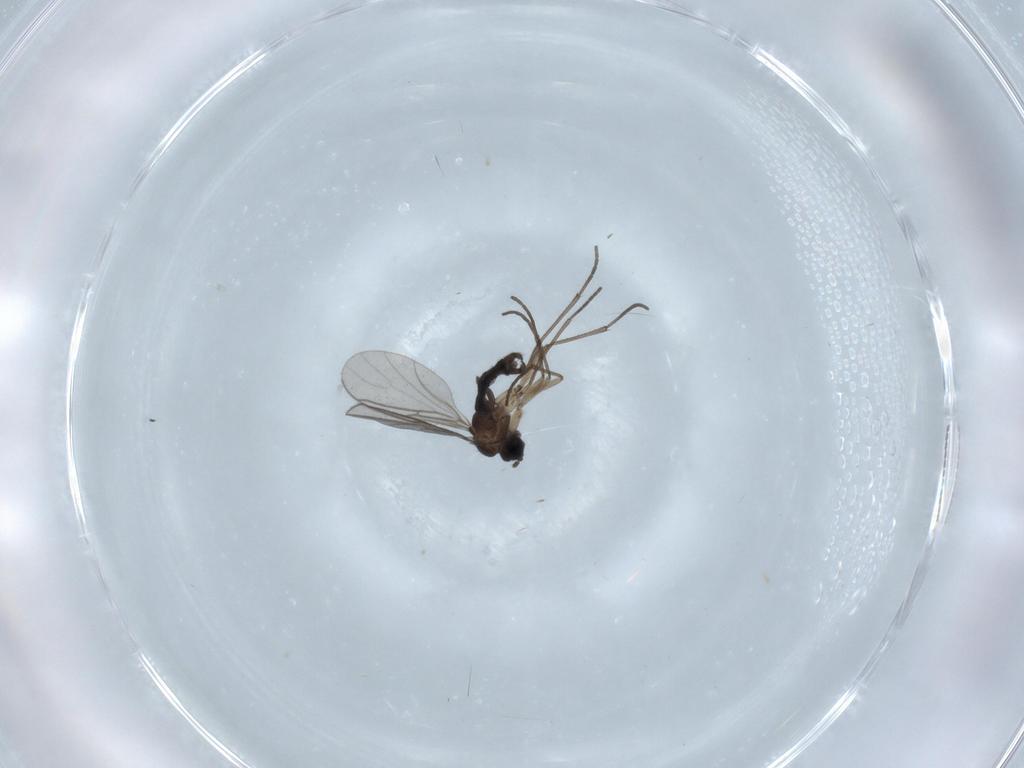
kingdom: Animalia
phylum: Arthropoda
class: Insecta
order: Diptera
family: Sciaridae
